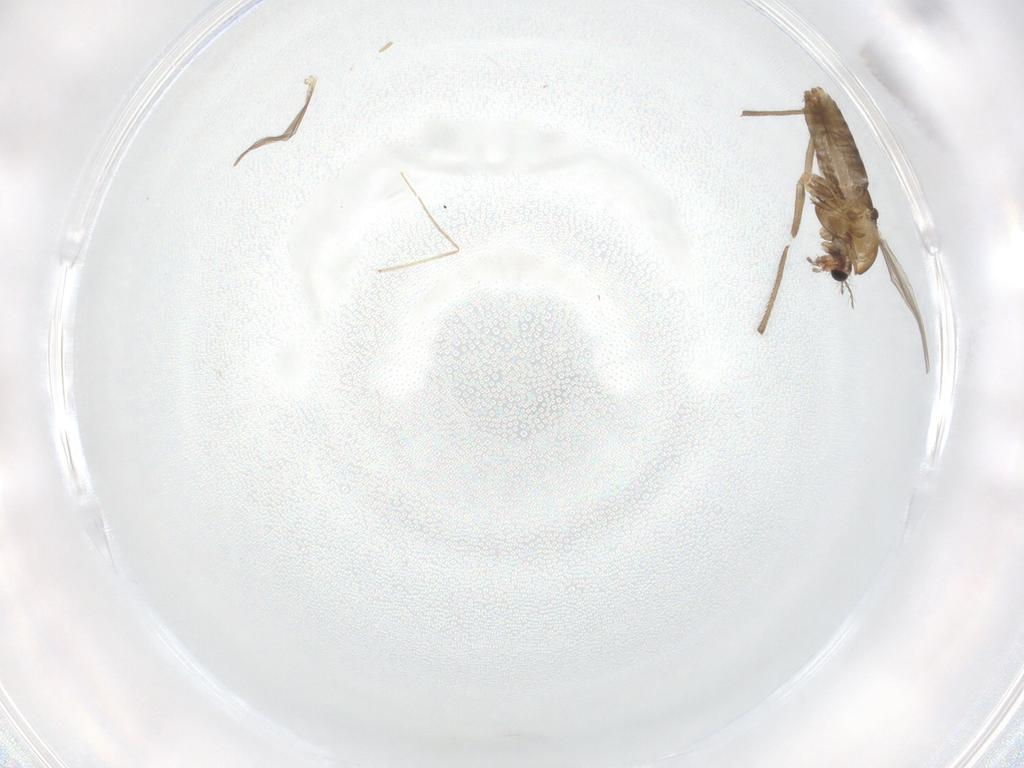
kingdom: Animalia
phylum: Arthropoda
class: Insecta
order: Diptera
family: Chironomidae
